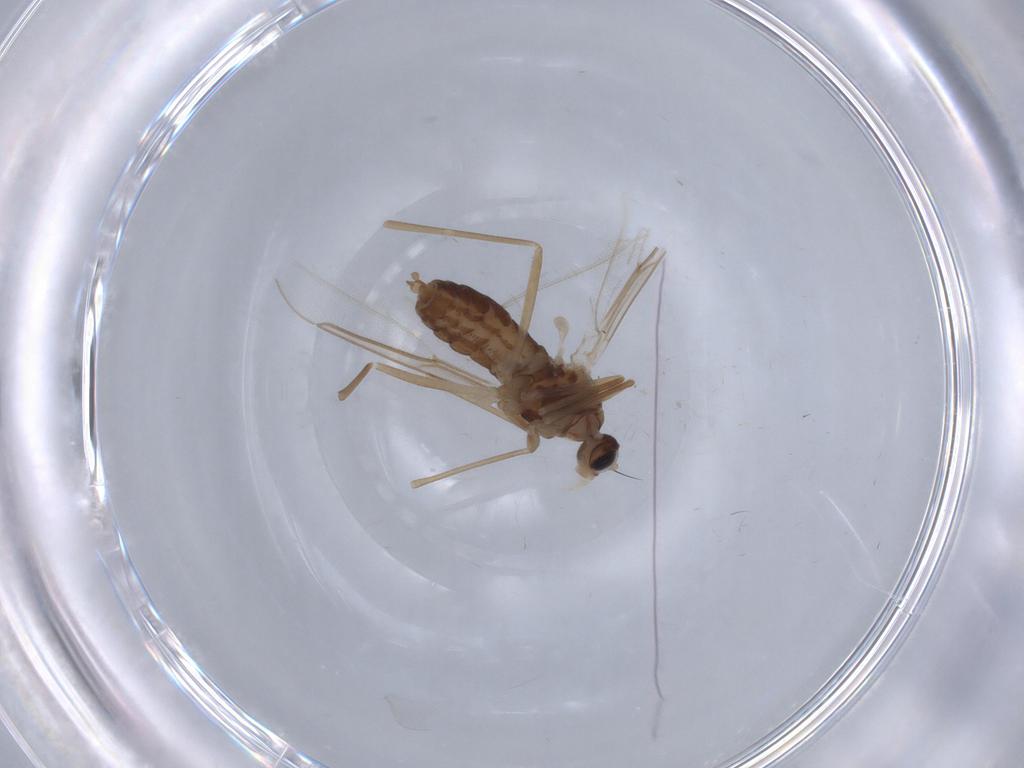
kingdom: Animalia
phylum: Arthropoda
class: Insecta
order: Diptera
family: Cecidomyiidae
